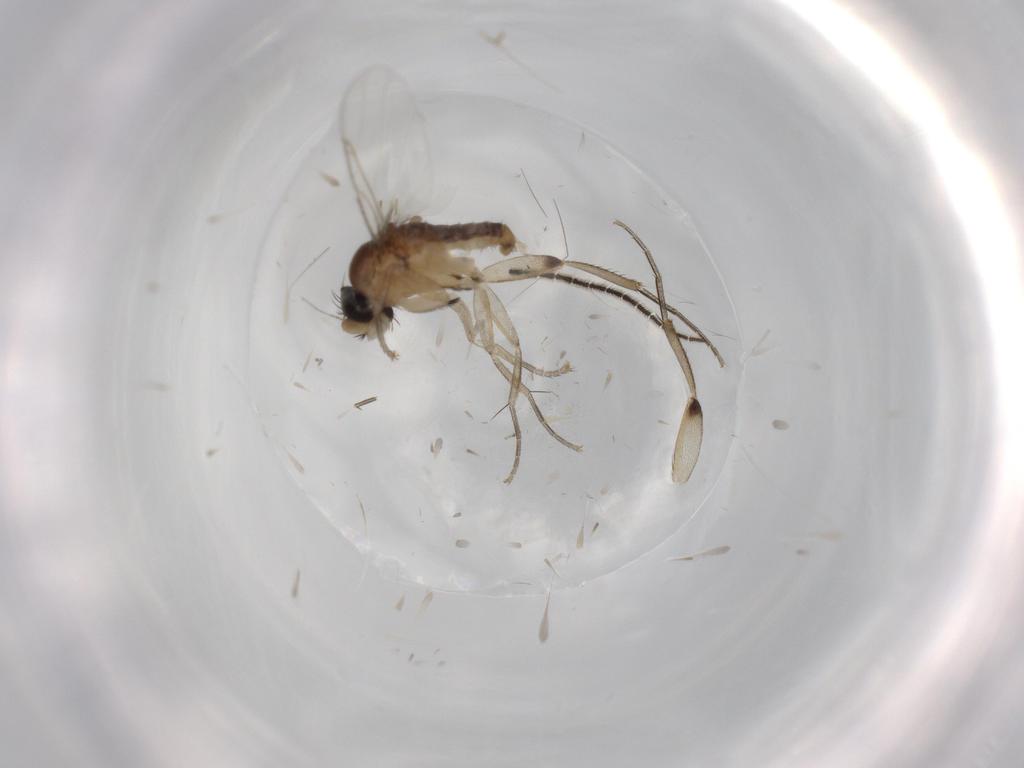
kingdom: Animalia
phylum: Arthropoda
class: Insecta
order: Diptera
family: Phoridae
